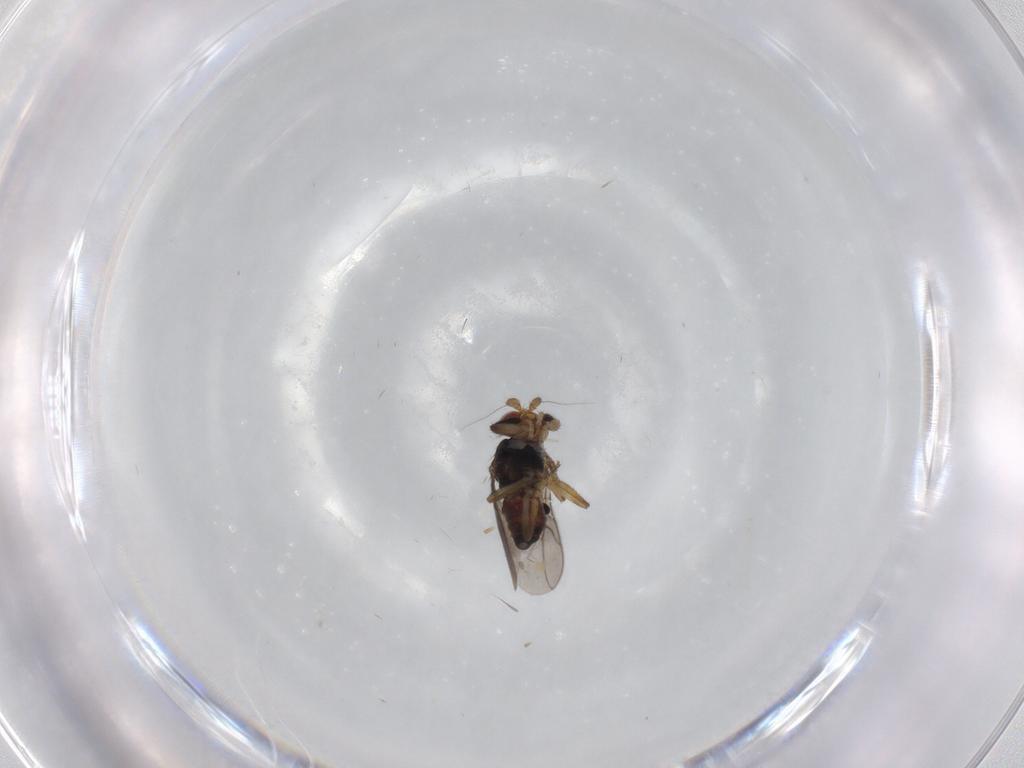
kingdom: Animalia
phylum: Arthropoda
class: Insecta
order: Diptera
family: Sphaeroceridae
